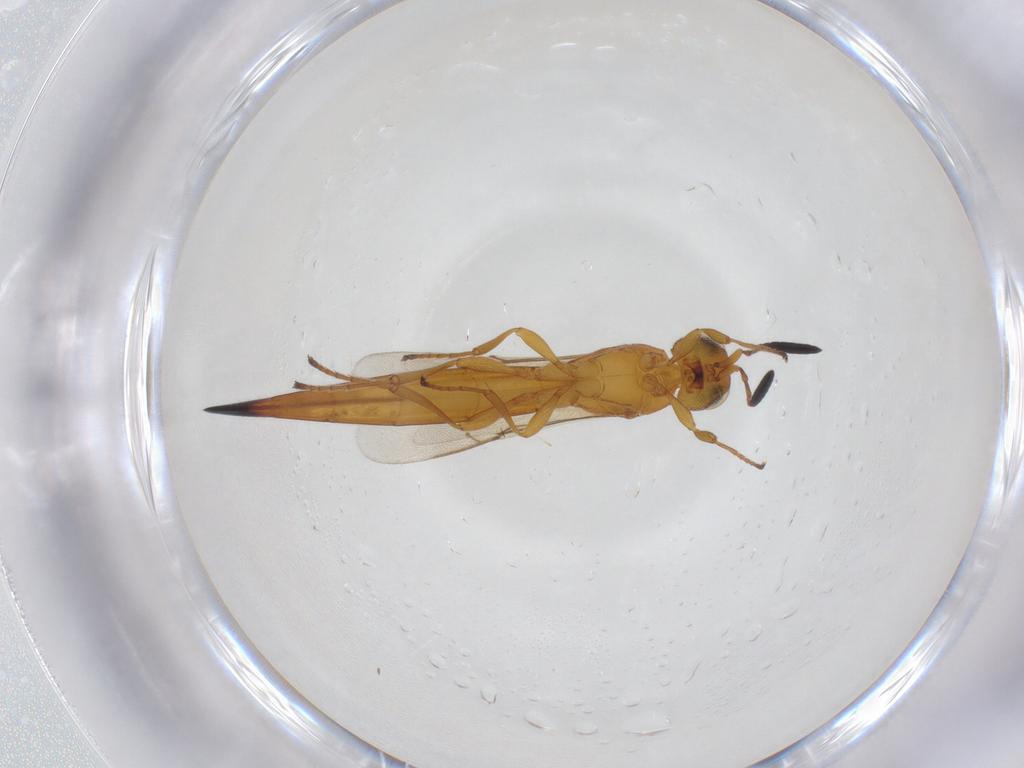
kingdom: Animalia
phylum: Arthropoda
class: Insecta
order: Hymenoptera
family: Scelionidae
